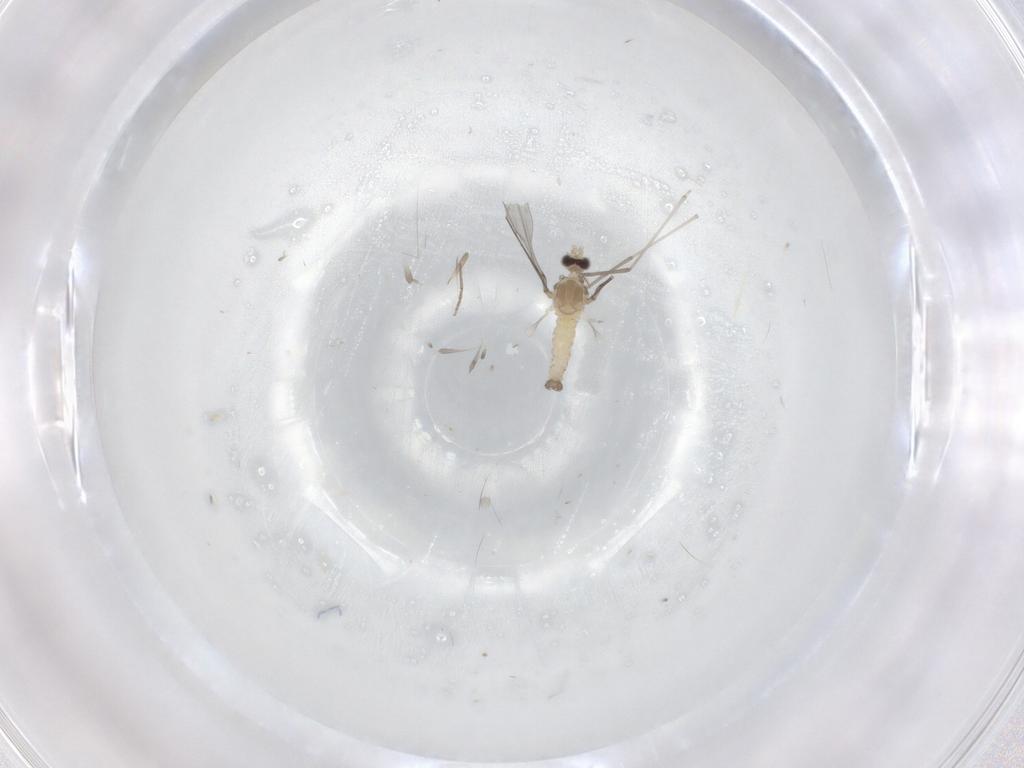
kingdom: Animalia
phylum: Arthropoda
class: Insecta
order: Diptera
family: Cecidomyiidae
